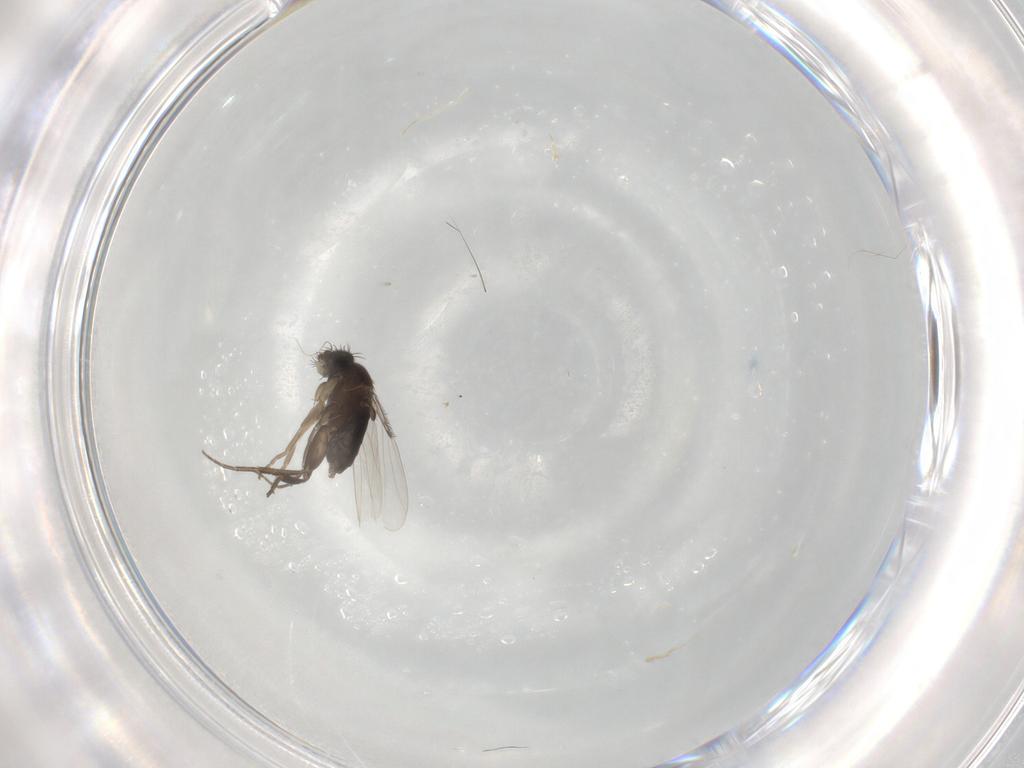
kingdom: Animalia
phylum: Arthropoda
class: Insecta
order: Diptera
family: Phoridae
